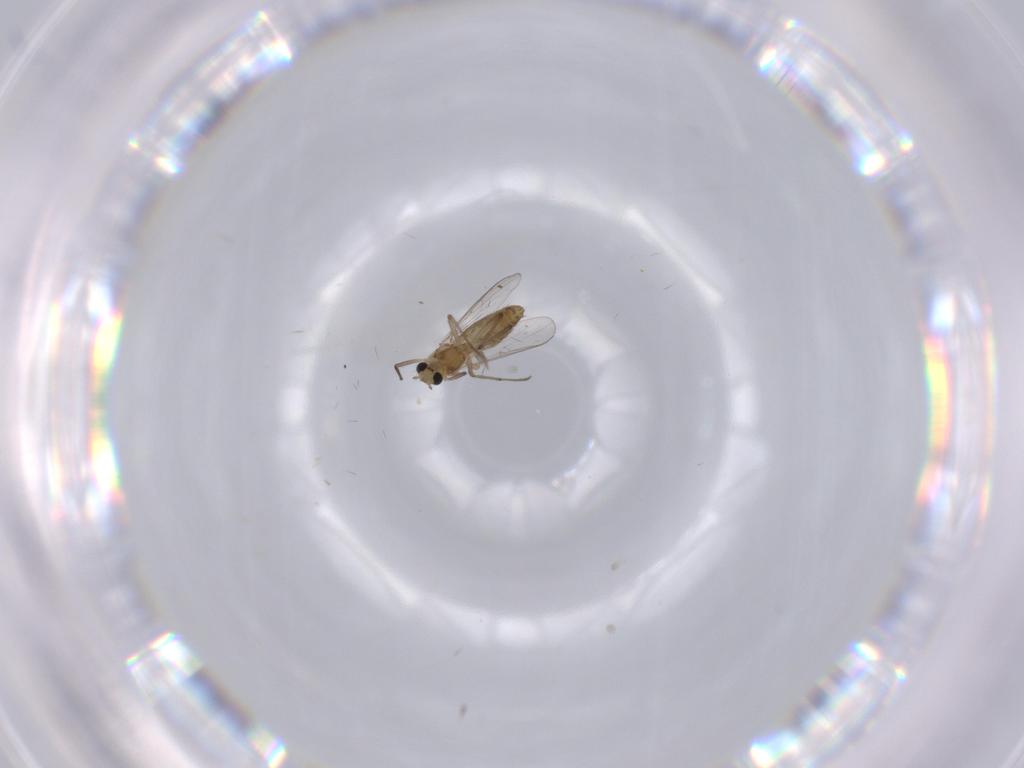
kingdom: Animalia
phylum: Arthropoda
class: Insecta
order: Diptera
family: Chironomidae
